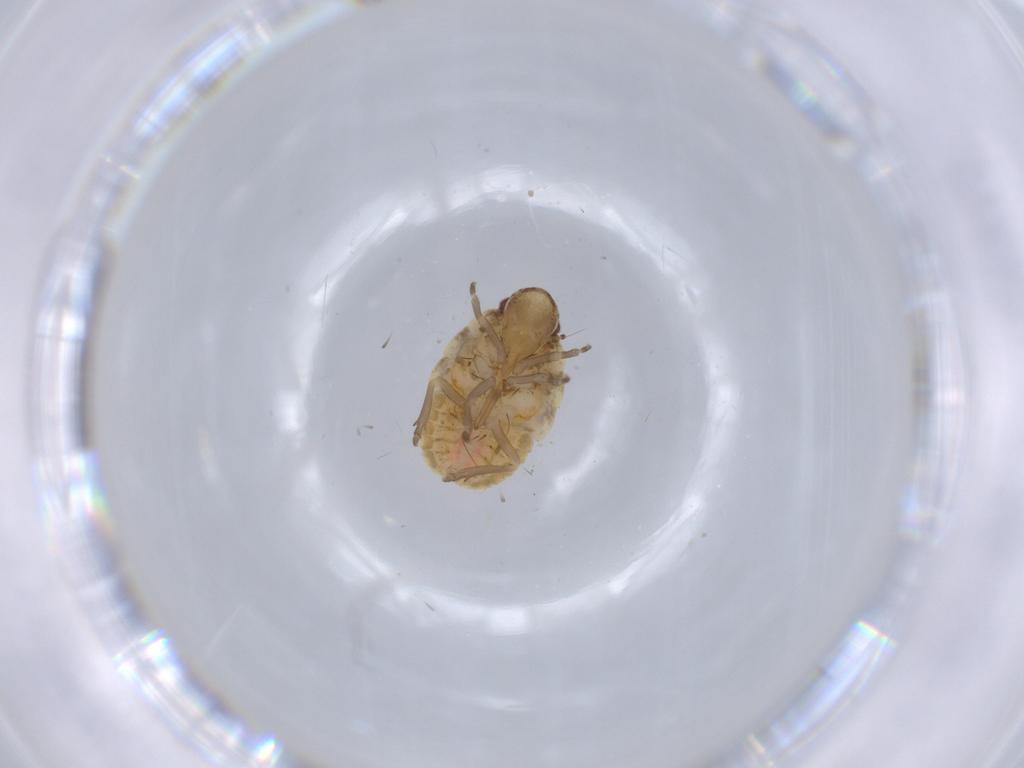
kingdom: Animalia
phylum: Arthropoda
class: Insecta
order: Hemiptera
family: Flatidae
